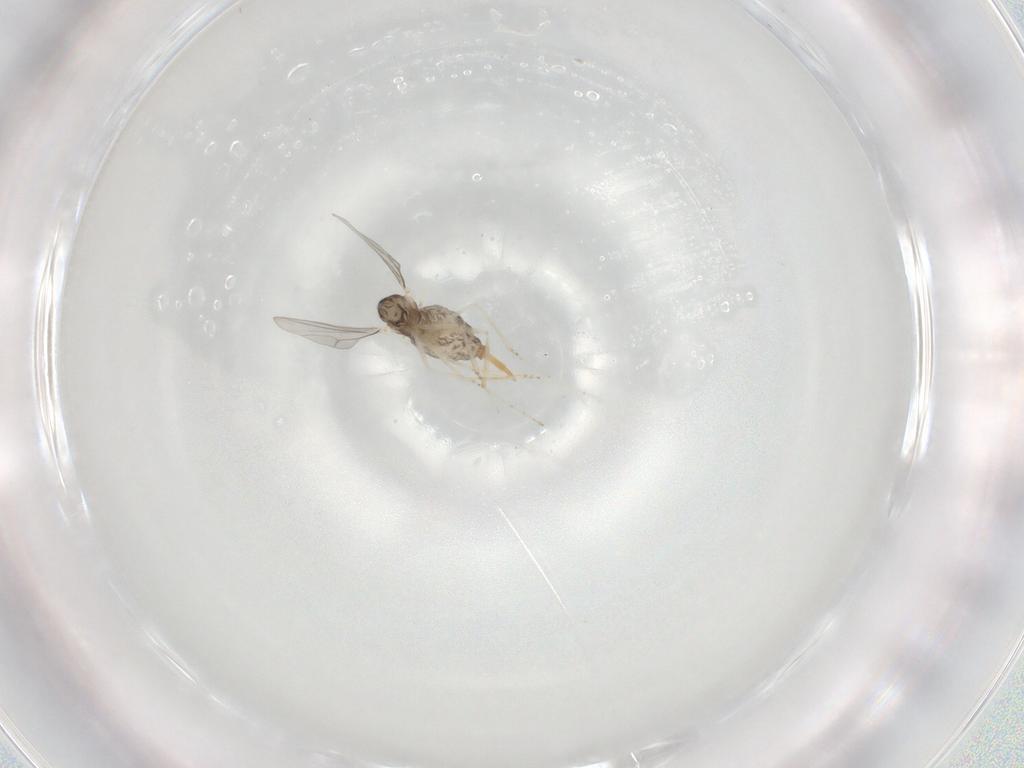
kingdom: Animalia
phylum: Arthropoda
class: Insecta
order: Diptera
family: Cecidomyiidae
